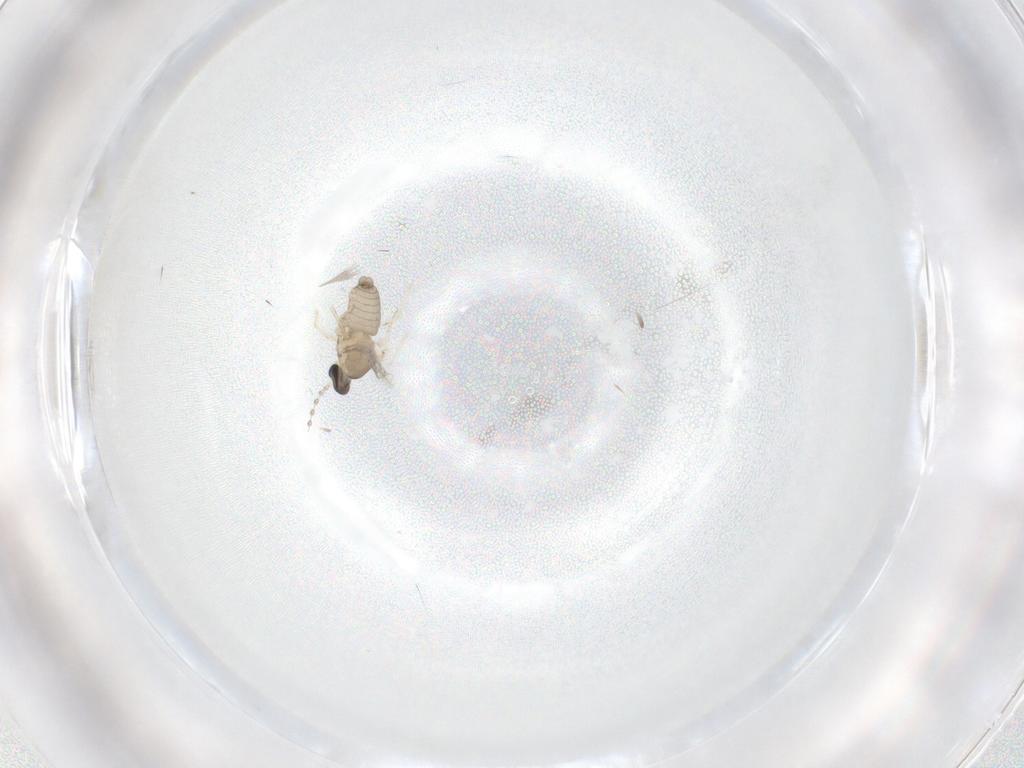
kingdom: Animalia
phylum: Arthropoda
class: Insecta
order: Diptera
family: Cecidomyiidae
